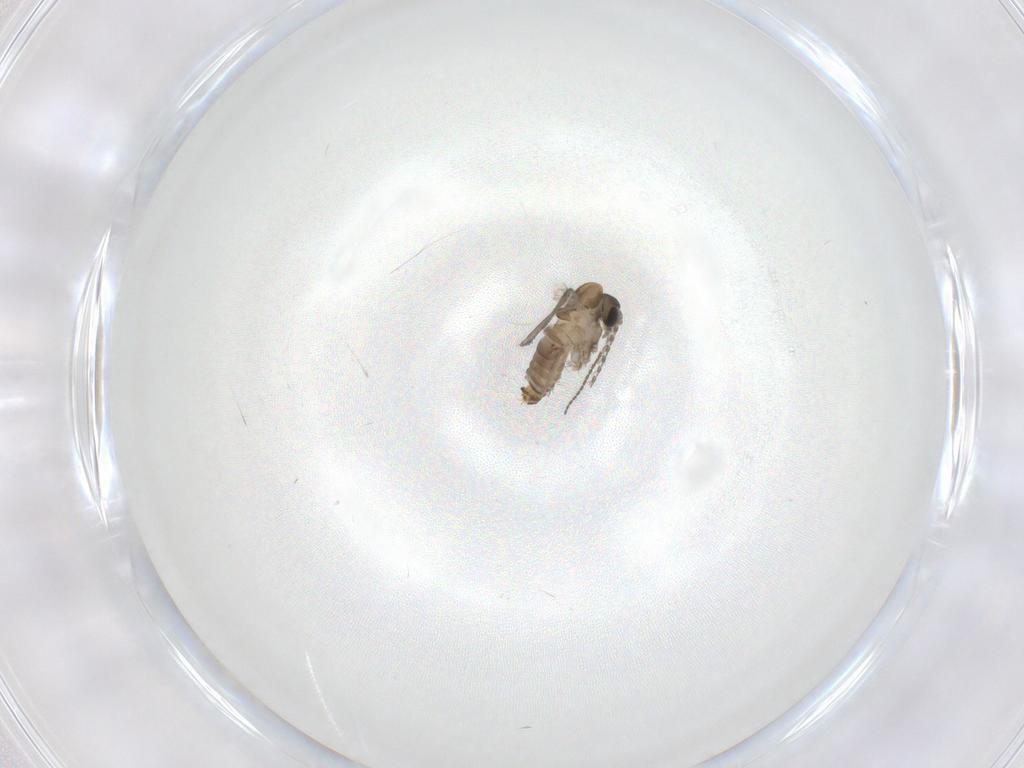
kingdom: Animalia
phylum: Arthropoda
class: Insecta
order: Diptera
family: Cecidomyiidae
